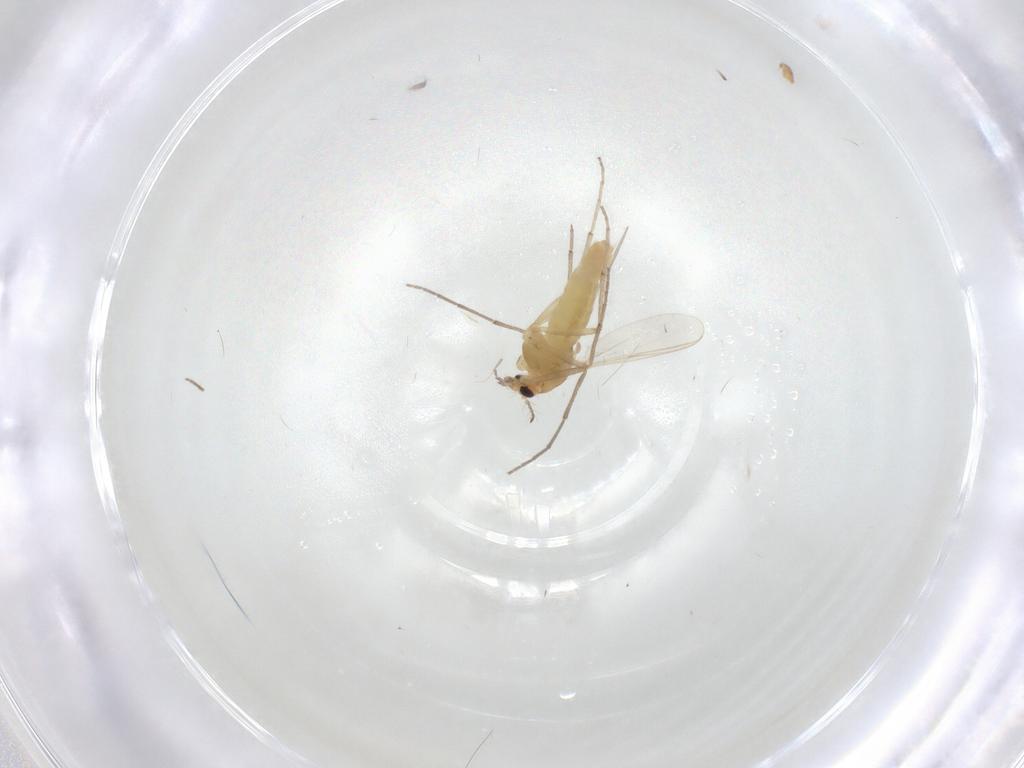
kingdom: Animalia
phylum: Arthropoda
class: Insecta
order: Diptera
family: Chironomidae
